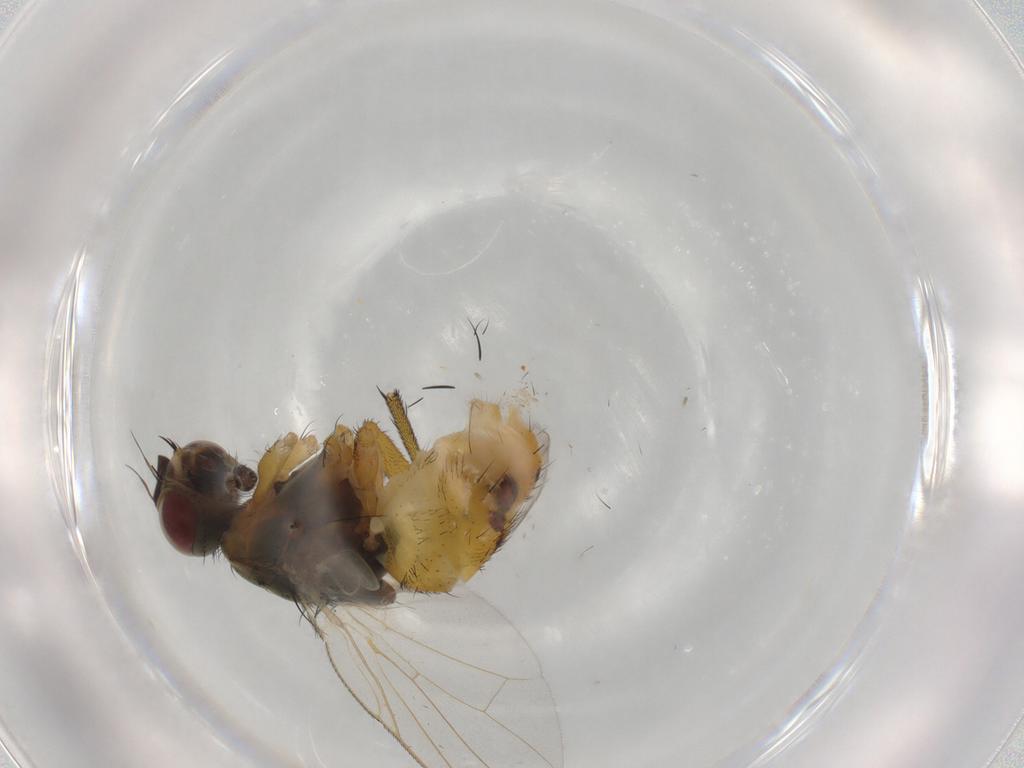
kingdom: Animalia
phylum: Arthropoda
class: Insecta
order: Diptera
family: Muscidae
